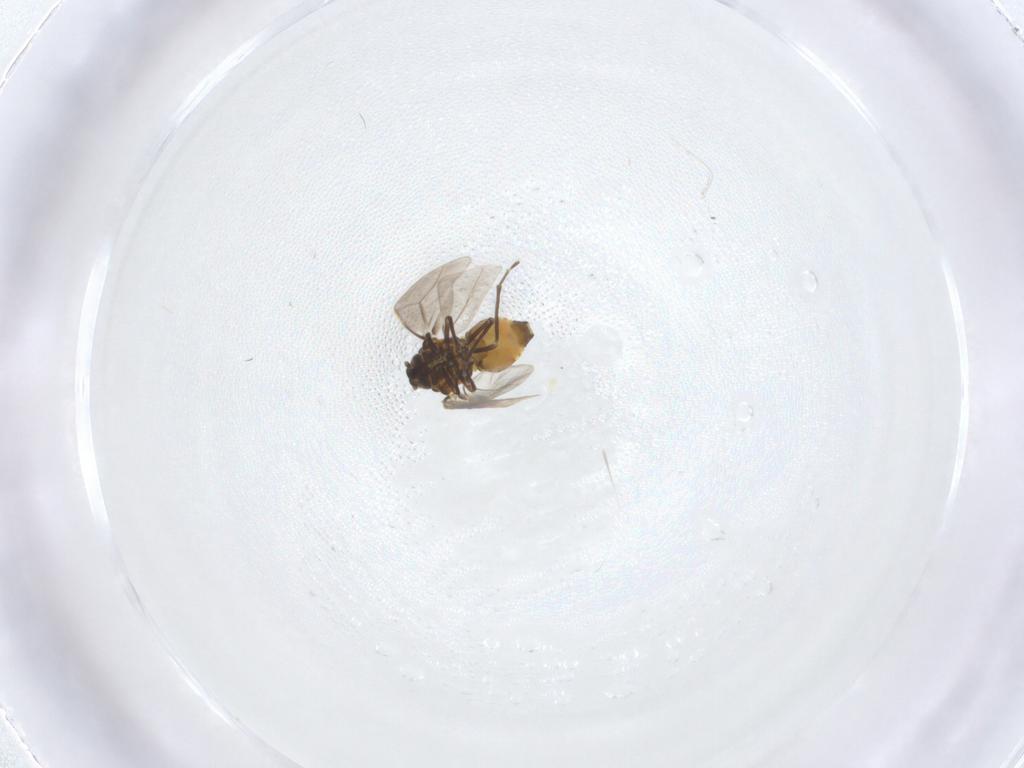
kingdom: Animalia
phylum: Arthropoda
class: Insecta
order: Hemiptera
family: Aleyrodidae
